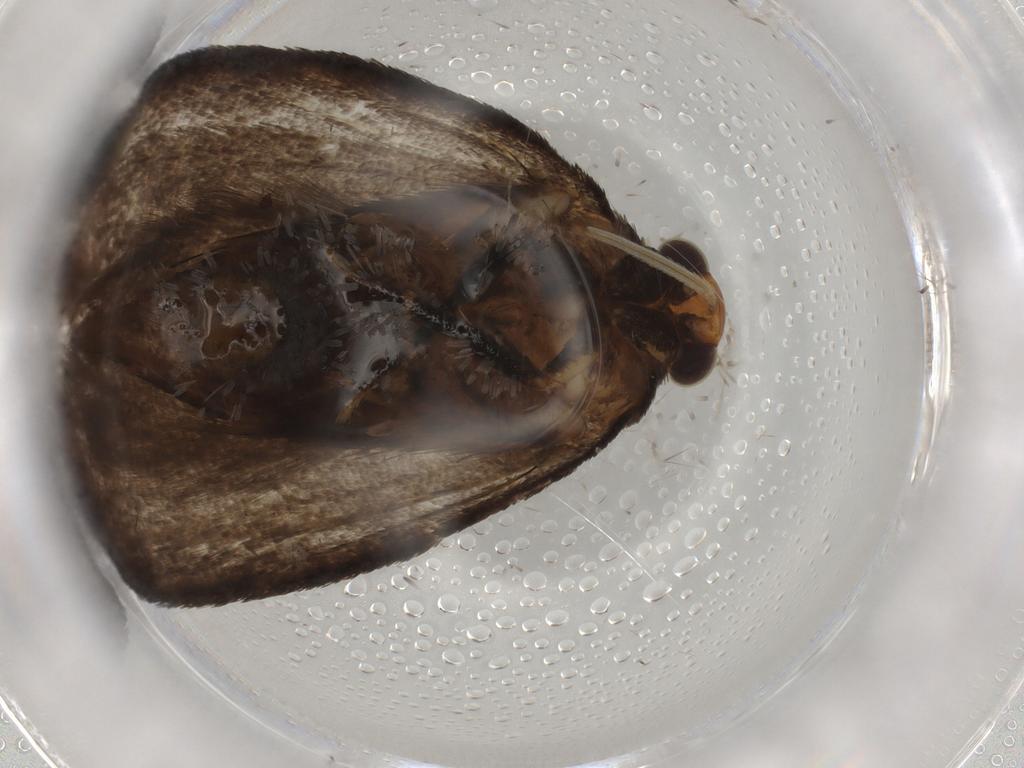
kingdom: Animalia
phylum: Arthropoda
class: Insecta
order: Lepidoptera
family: Oecophoridae
